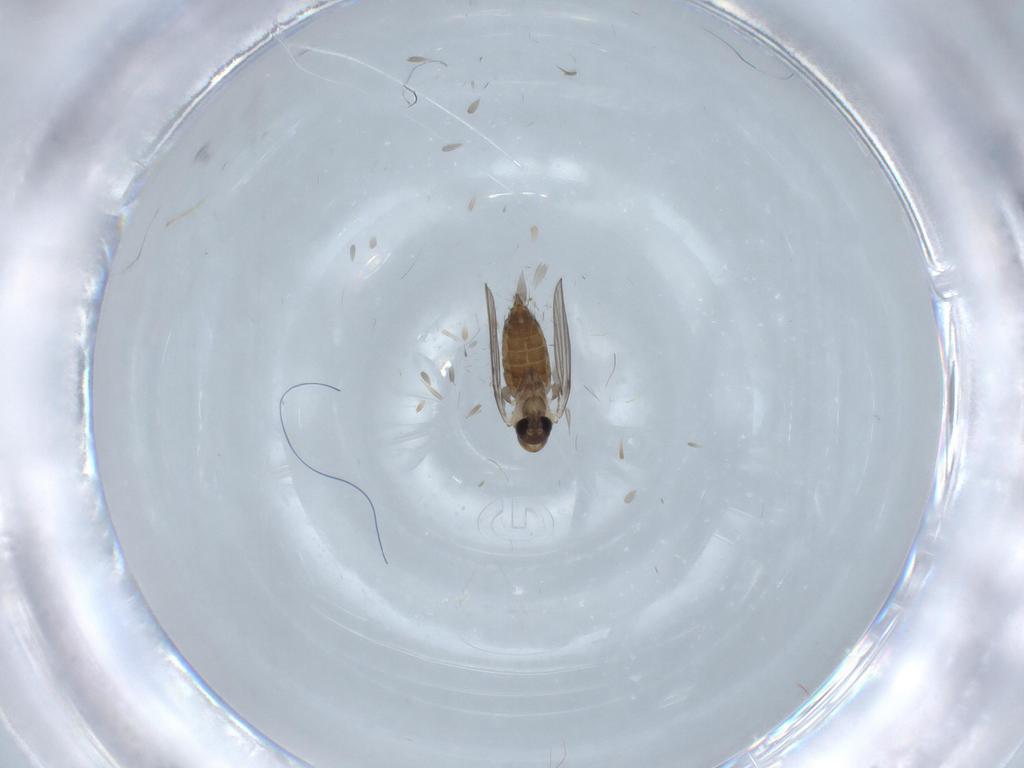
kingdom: Animalia
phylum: Arthropoda
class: Insecta
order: Diptera
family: Psychodidae
